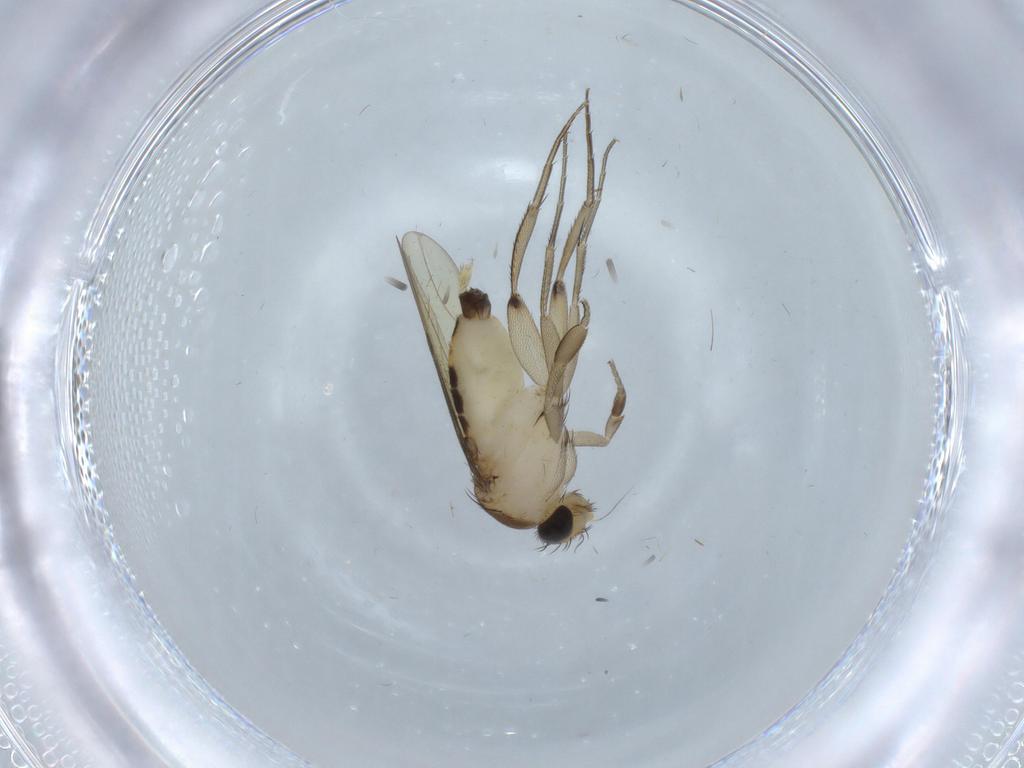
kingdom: Animalia
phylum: Arthropoda
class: Insecta
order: Diptera
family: Phoridae
